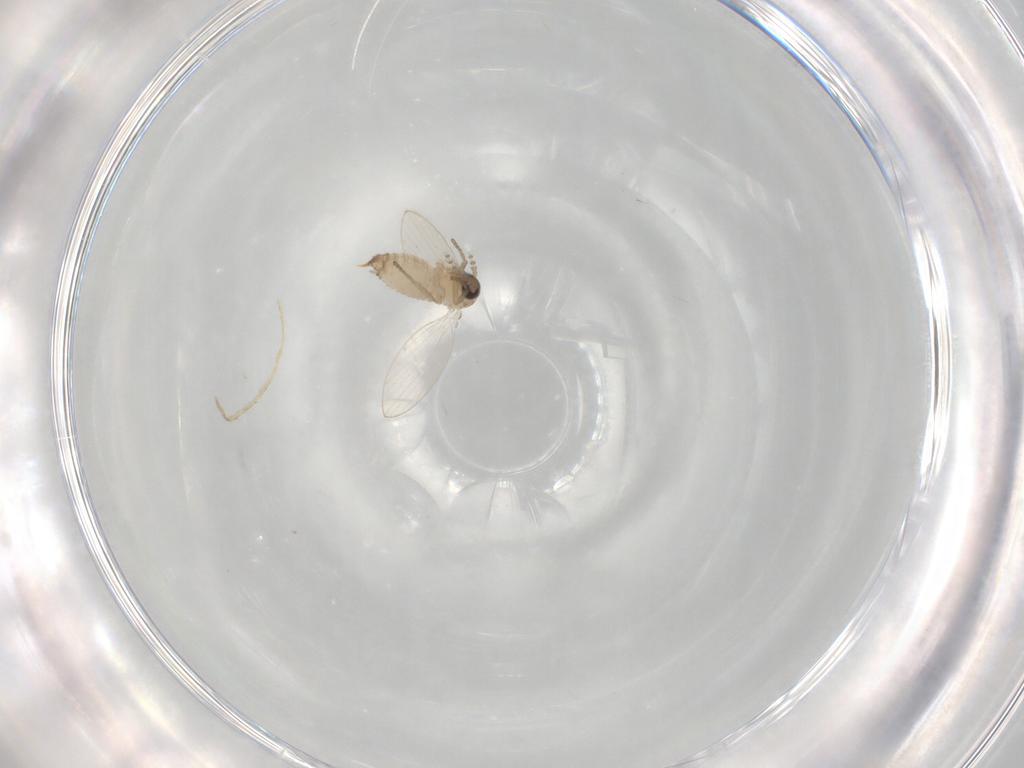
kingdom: Animalia
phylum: Arthropoda
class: Insecta
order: Diptera
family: Psychodidae
